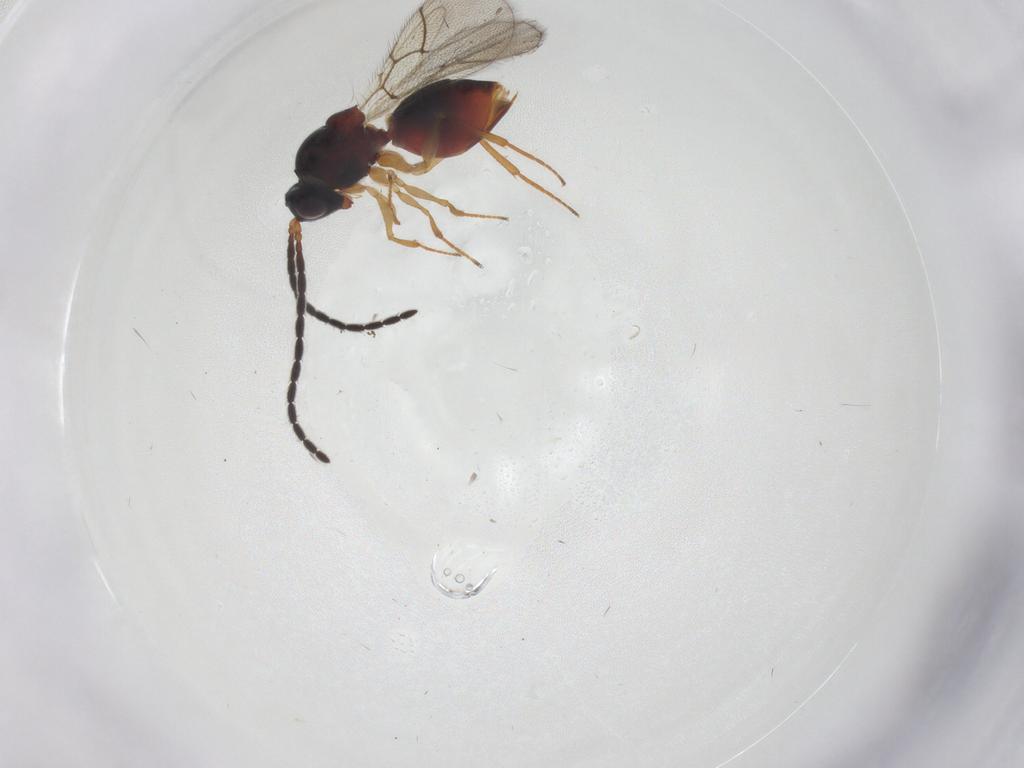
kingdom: Animalia
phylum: Arthropoda
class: Insecta
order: Hymenoptera
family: Figitidae
